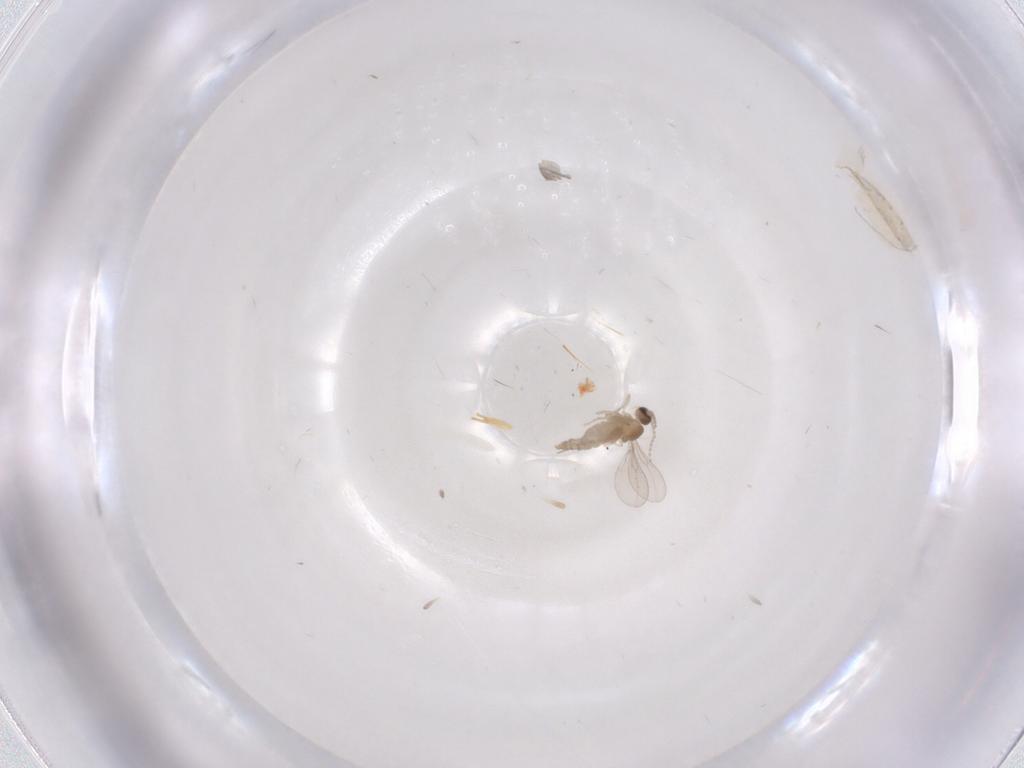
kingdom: Animalia
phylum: Arthropoda
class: Insecta
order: Diptera
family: Cecidomyiidae
